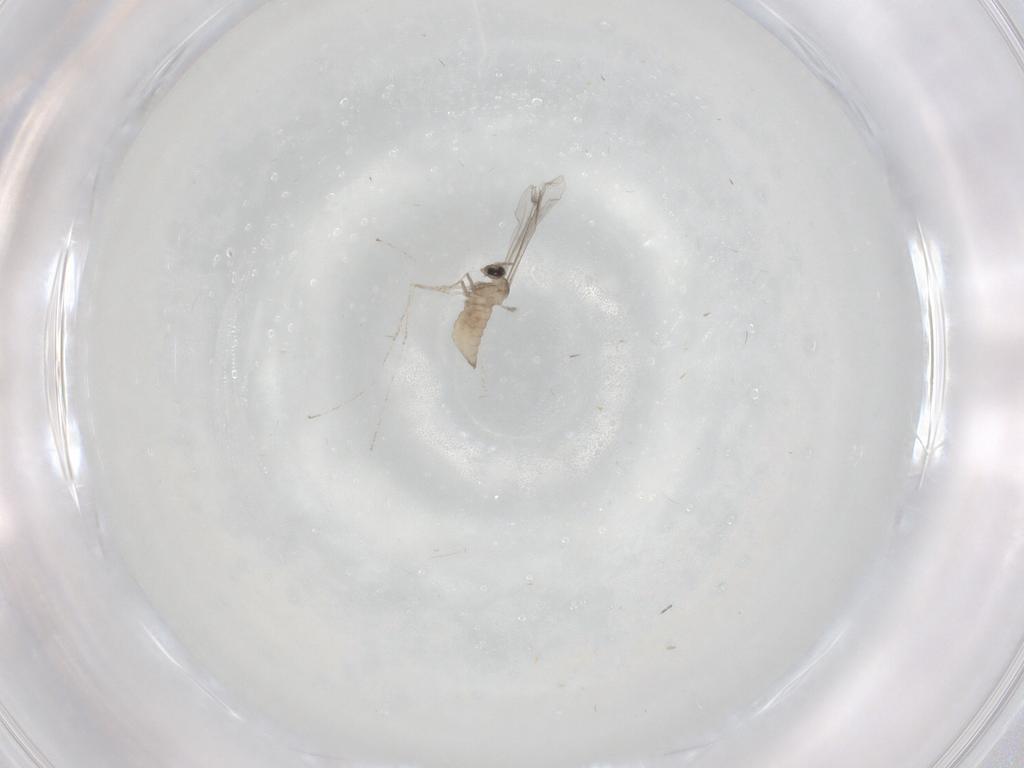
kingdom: Animalia
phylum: Arthropoda
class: Insecta
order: Diptera
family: Cecidomyiidae
